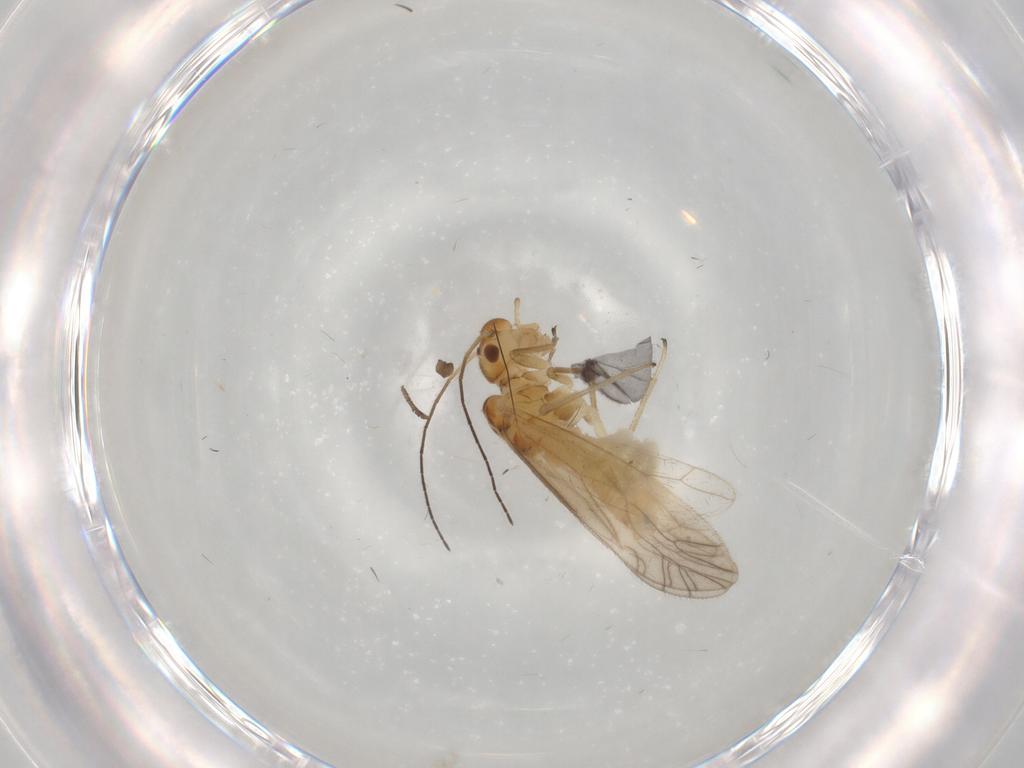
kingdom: Animalia
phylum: Arthropoda
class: Insecta
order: Psocodea
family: Caeciliusidae
